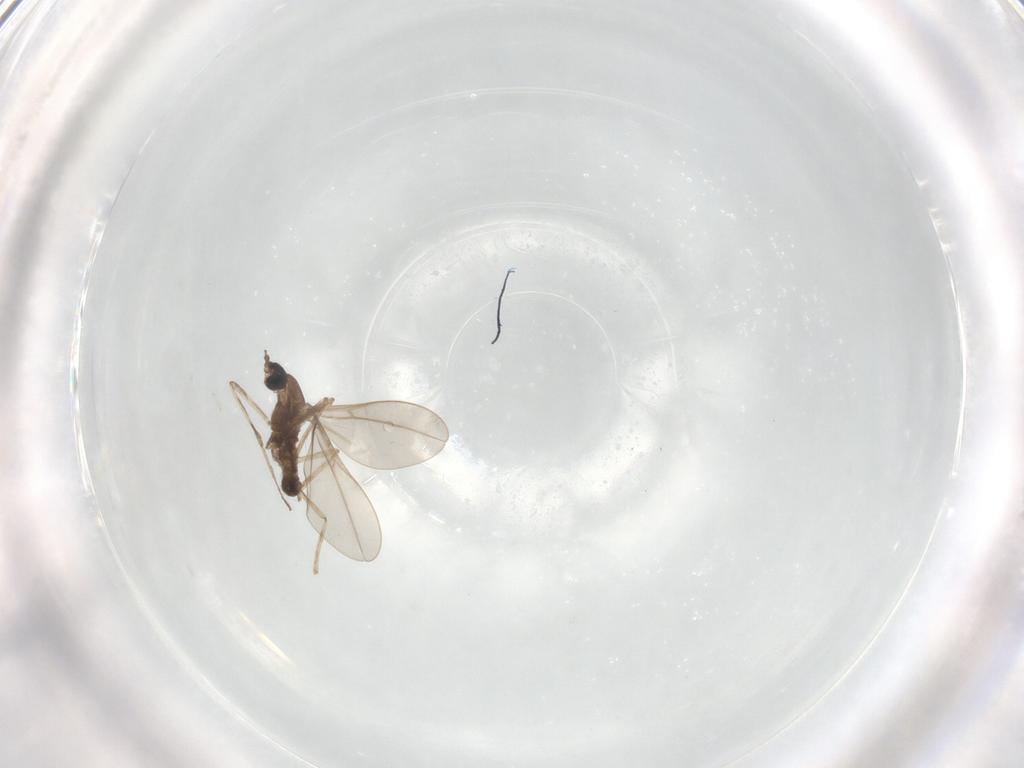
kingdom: Animalia
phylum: Arthropoda
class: Insecta
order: Diptera
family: Cecidomyiidae
